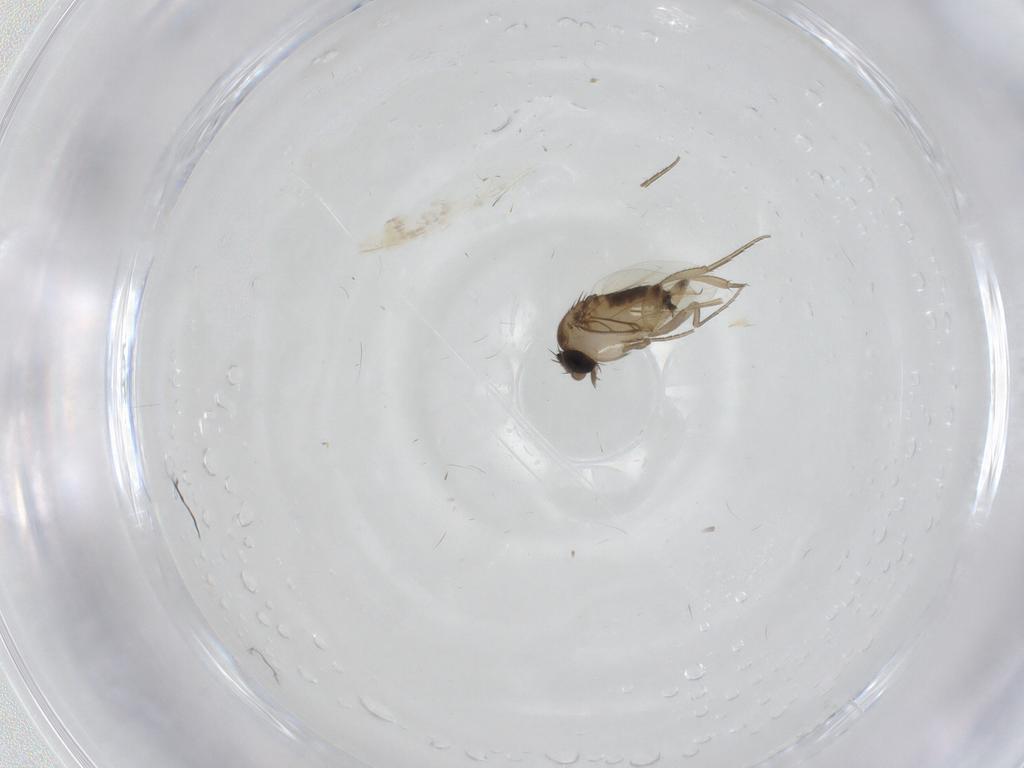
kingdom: Animalia
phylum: Arthropoda
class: Insecta
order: Diptera
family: Phoridae
